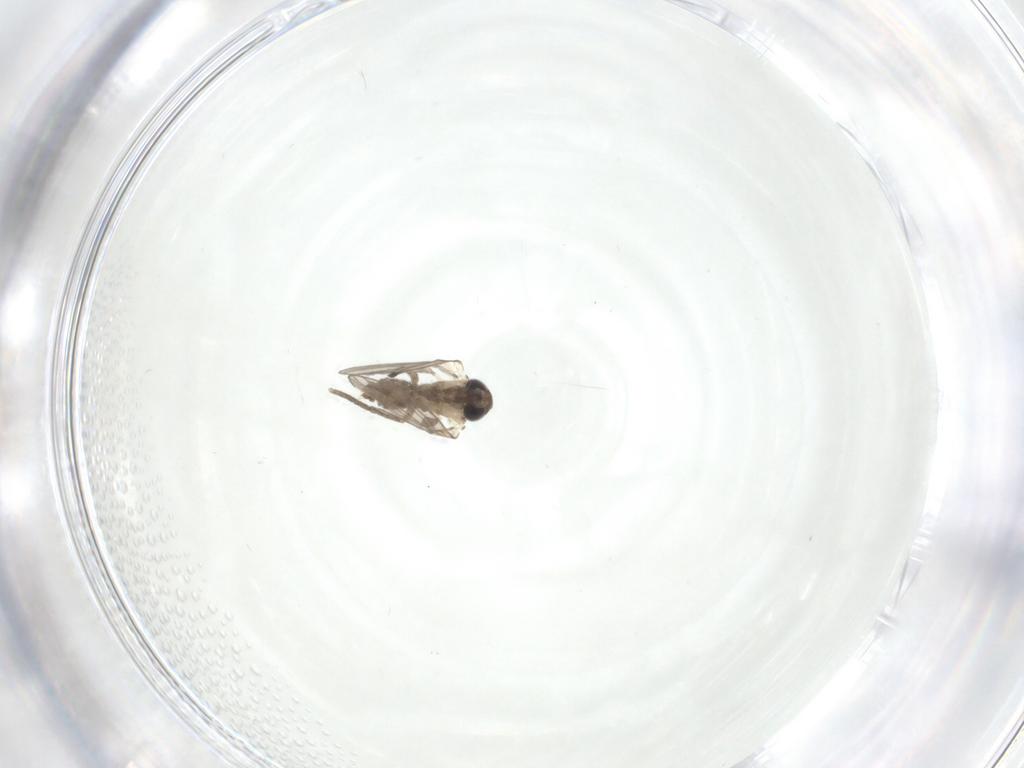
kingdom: Animalia
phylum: Arthropoda
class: Insecta
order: Diptera
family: Psychodidae
